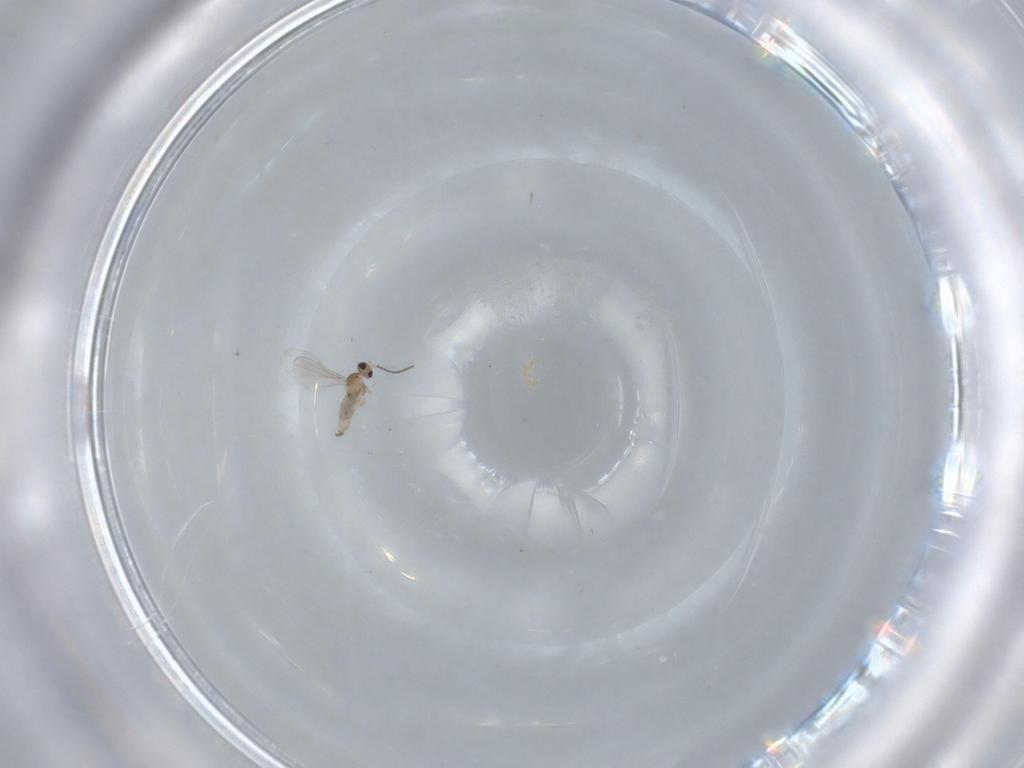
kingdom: Animalia
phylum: Arthropoda
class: Insecta
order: Diptera
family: Cecidomyiidae
